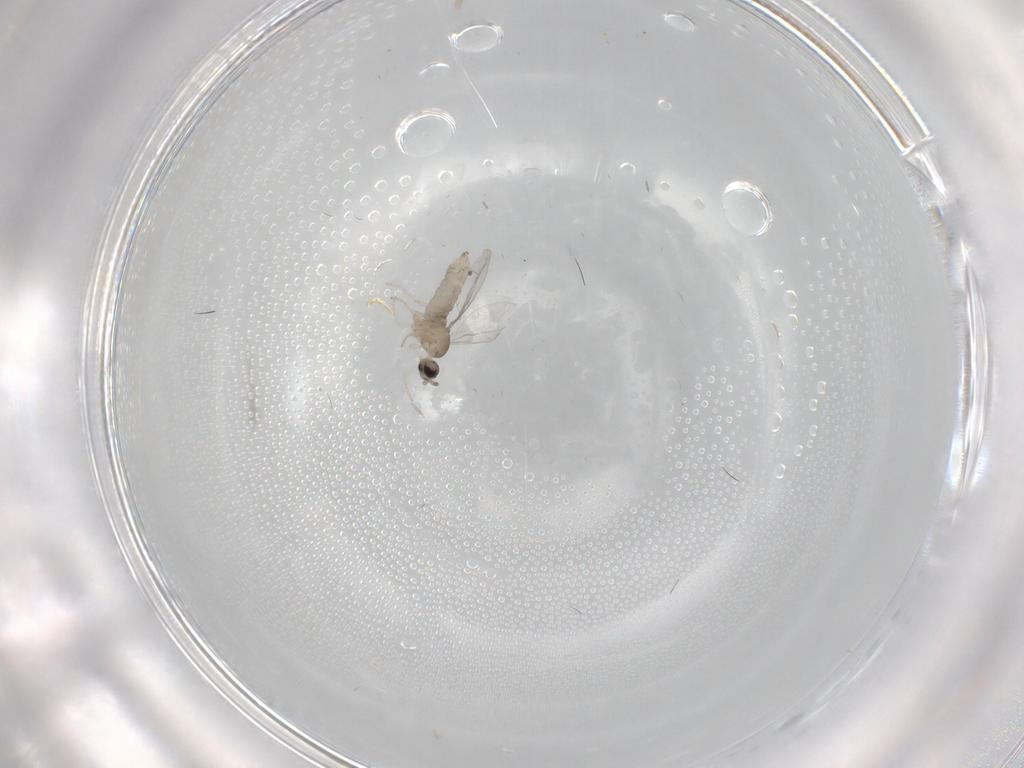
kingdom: Animalia
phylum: Arthropoda
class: Insecta
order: Diptera
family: Cecidomyiidae
